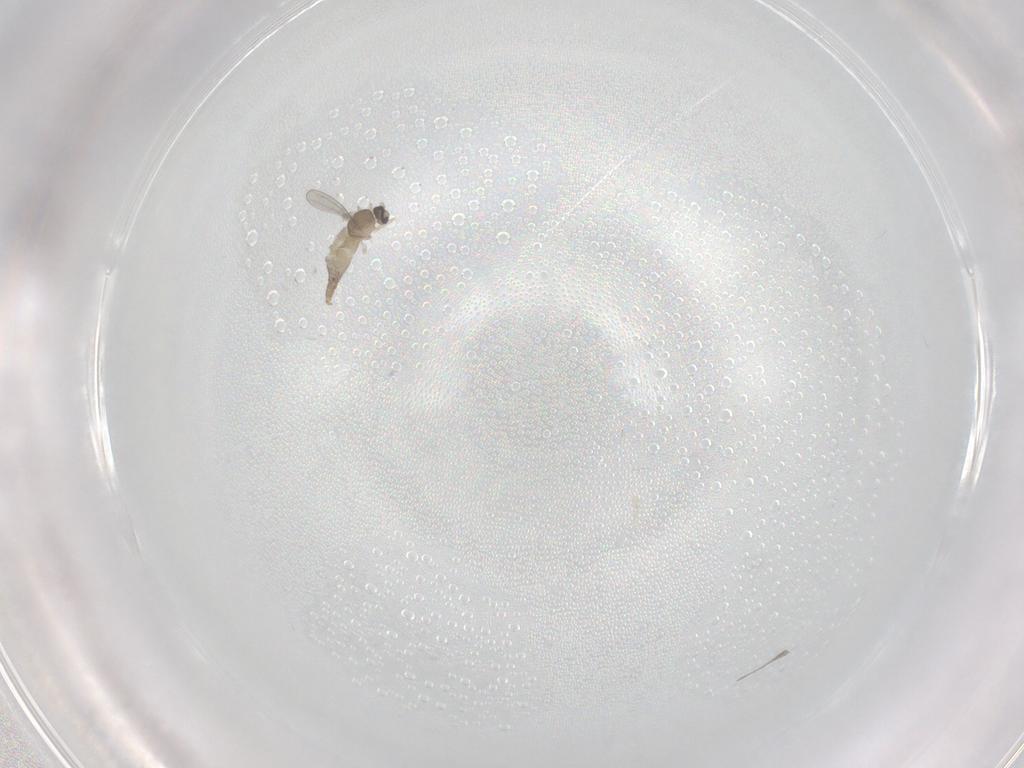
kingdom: Animalia
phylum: Arthropoda
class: Insecta
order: Diptera
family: Cecidomyiidae
